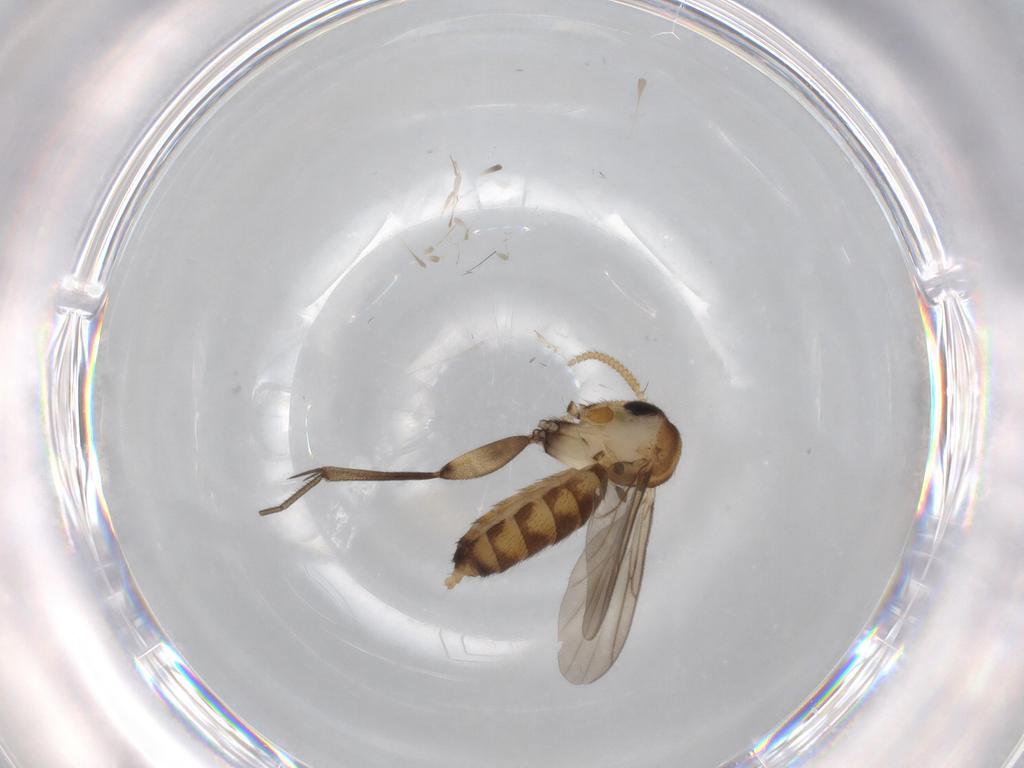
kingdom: Animalia
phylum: Arthropoda
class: Insecta
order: Diptera
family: Mycetophilidae
